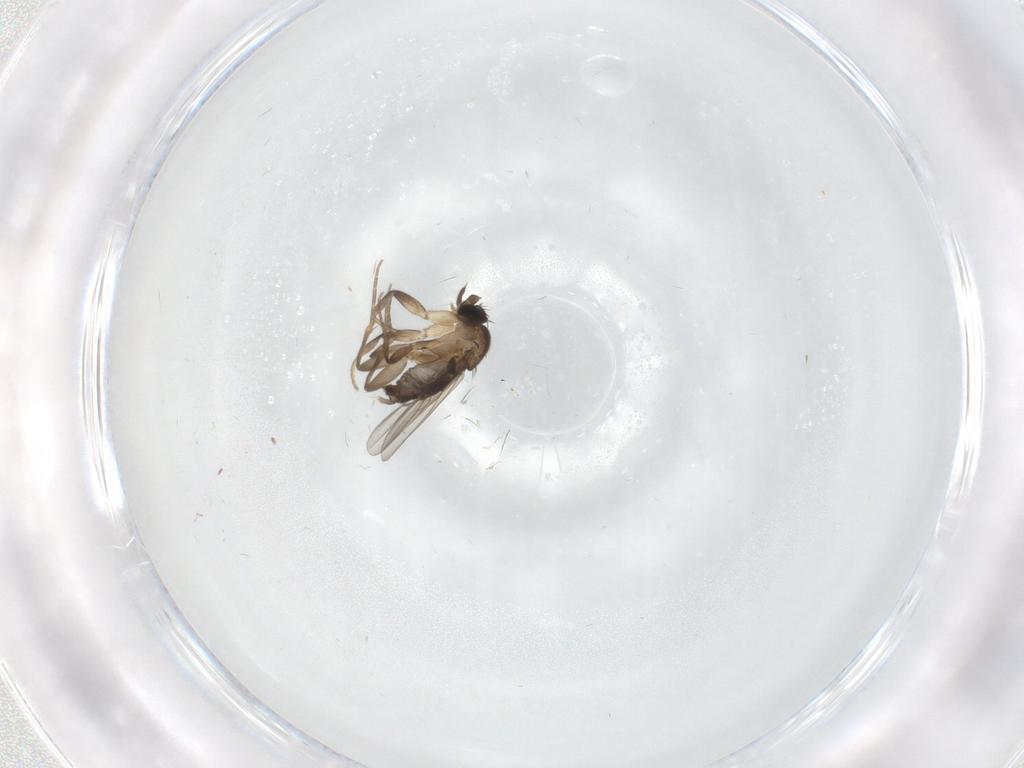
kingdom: Animalia
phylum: Arthropoda
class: Insecta
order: Diptera
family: Phoridae
